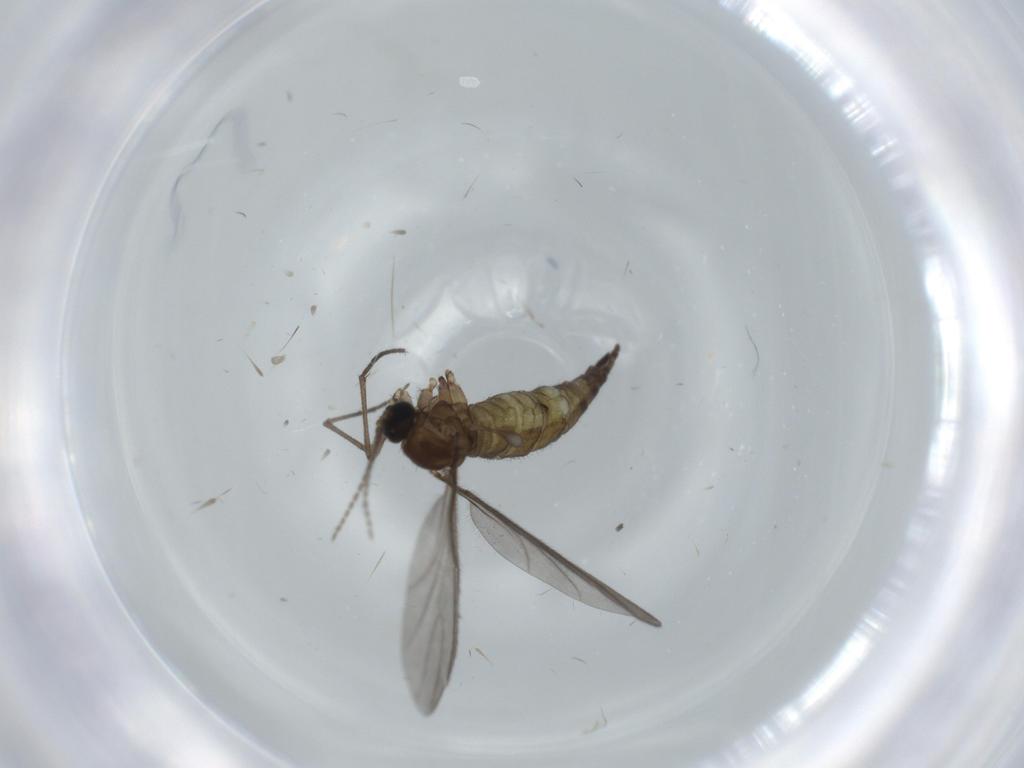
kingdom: Animalia
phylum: Arthropoda
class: Insecta
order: Diptera
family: Sciaridae
